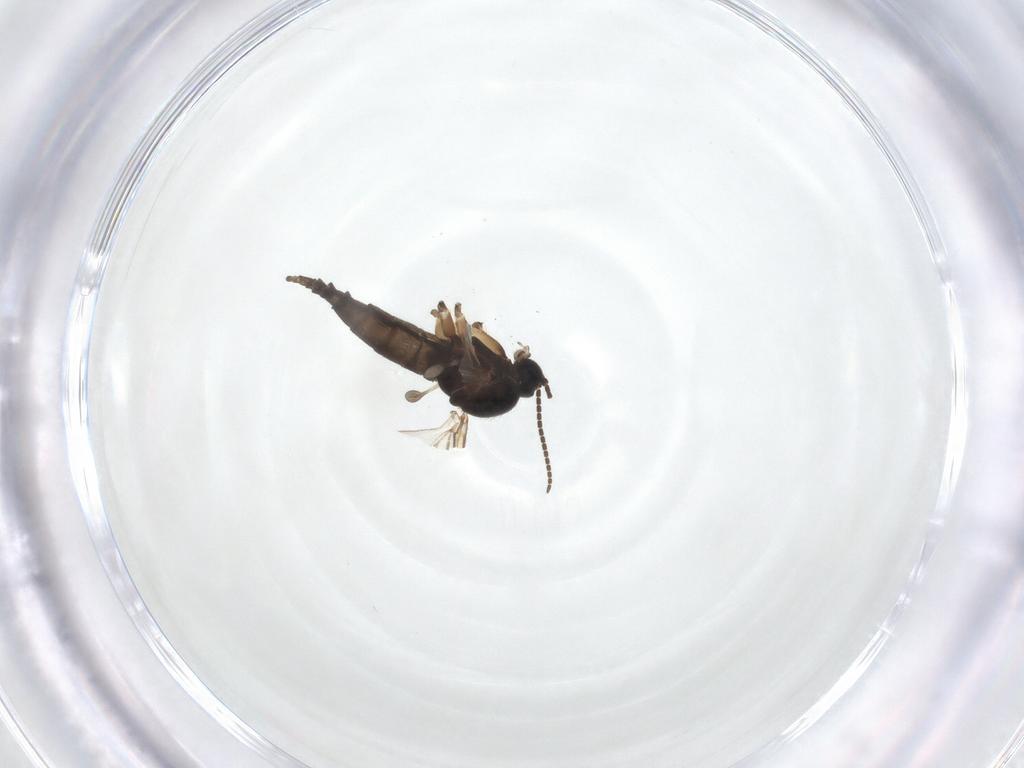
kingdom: Animalia
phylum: Arthropoda
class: Insecta
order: Diptera
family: Sciaridae
